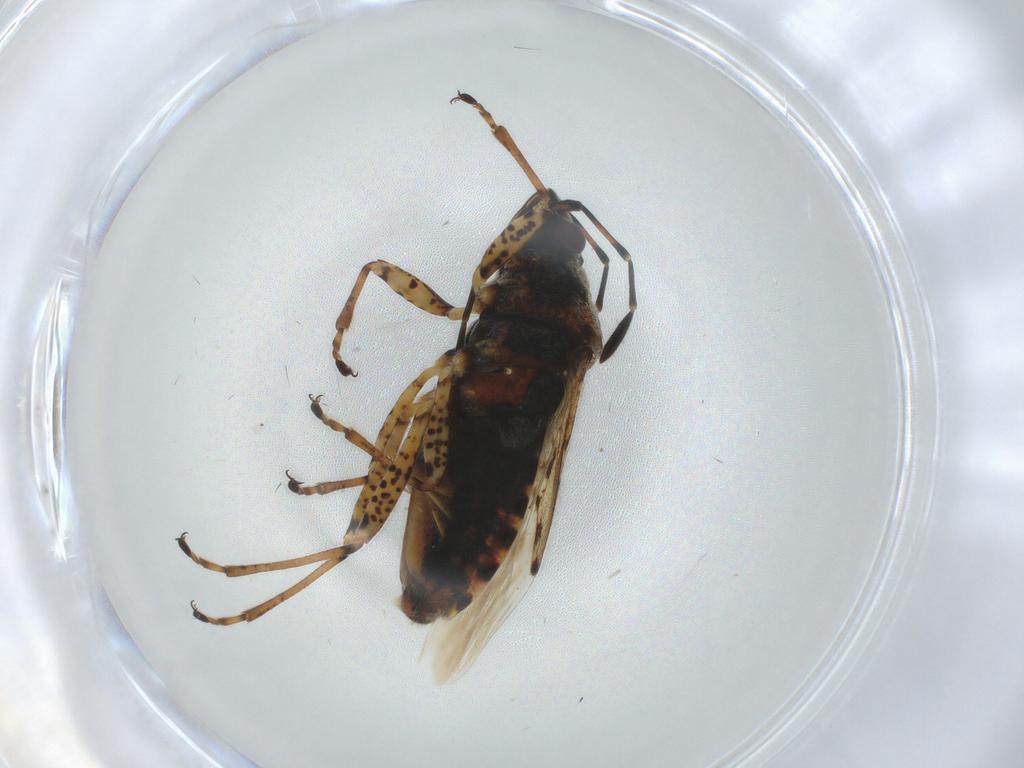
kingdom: Animalia
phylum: Arthropoda
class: Insecta
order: Hemiptera
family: Lygaeidae
